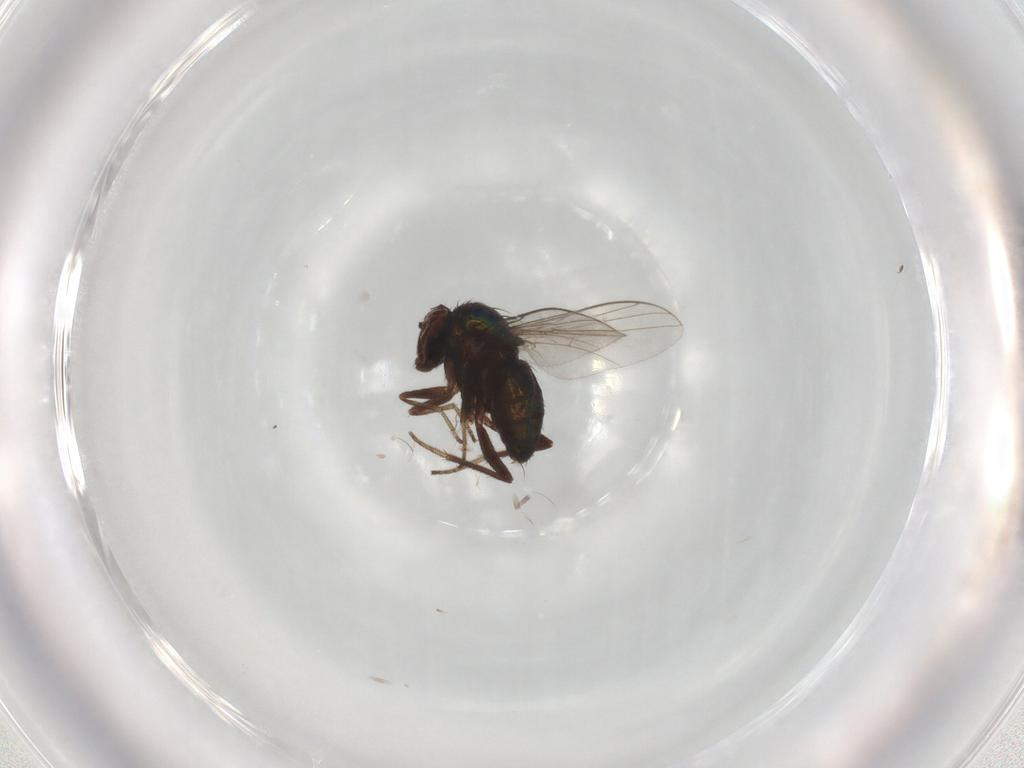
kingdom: Animalia
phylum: Arthropoda
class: Insecta
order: Diptera
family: Dolichopodidae
